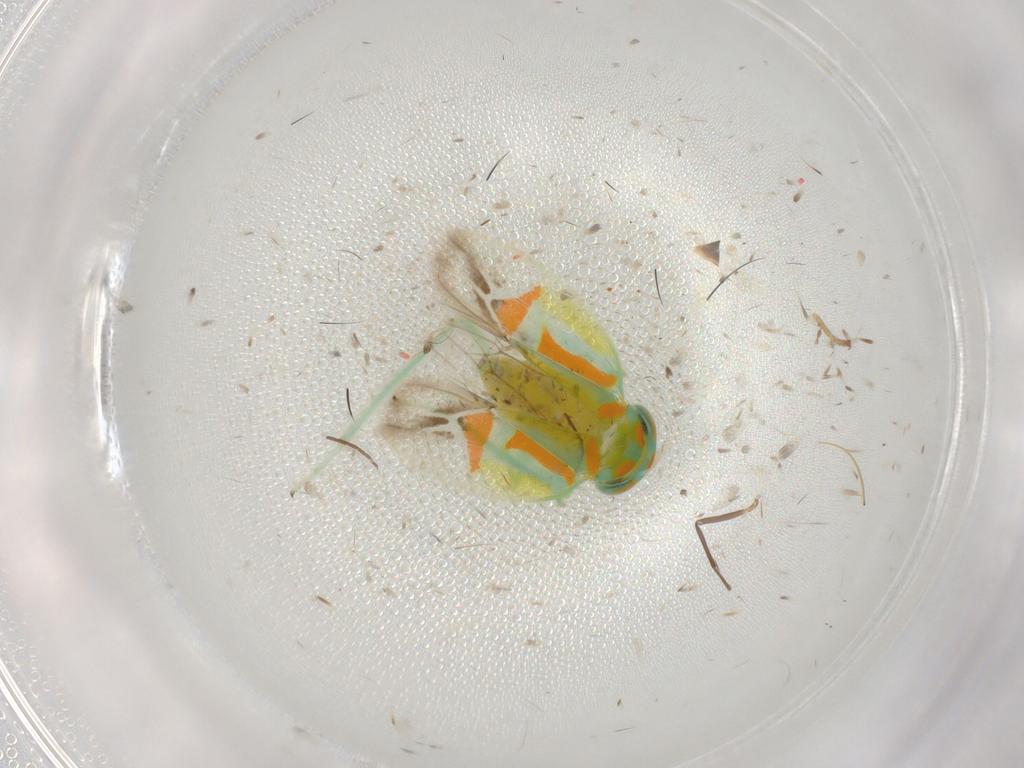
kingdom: Animalia
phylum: Arthropoda
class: Insecta
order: Hemiptera
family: Cicadellidae
